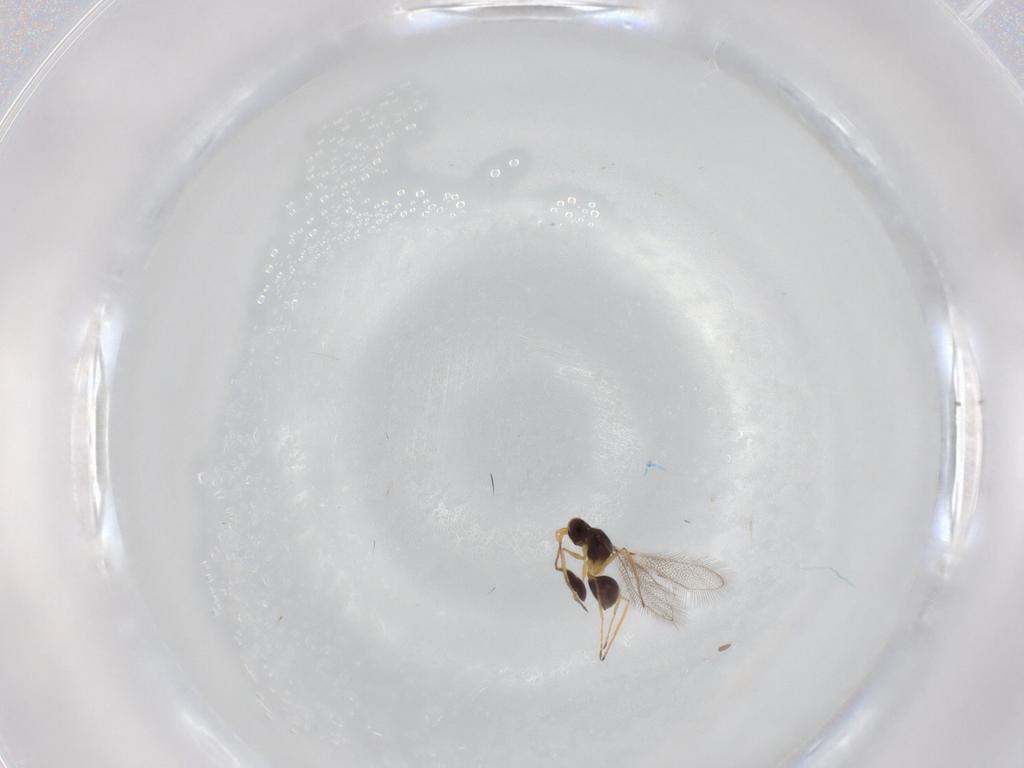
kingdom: Animalia
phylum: Arthropoda
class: Insecta
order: Hymenoptera
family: Mymaridae
